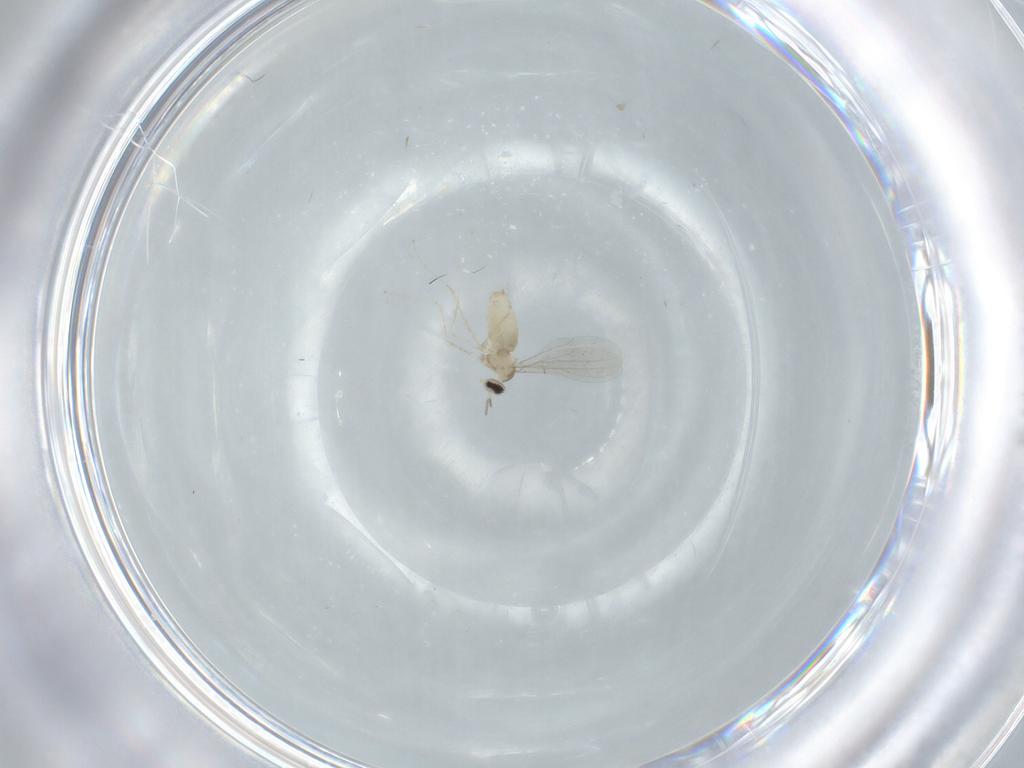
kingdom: Animalia
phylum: Arthropoda
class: Insecta
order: Diptera
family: Cecidomyiidae
